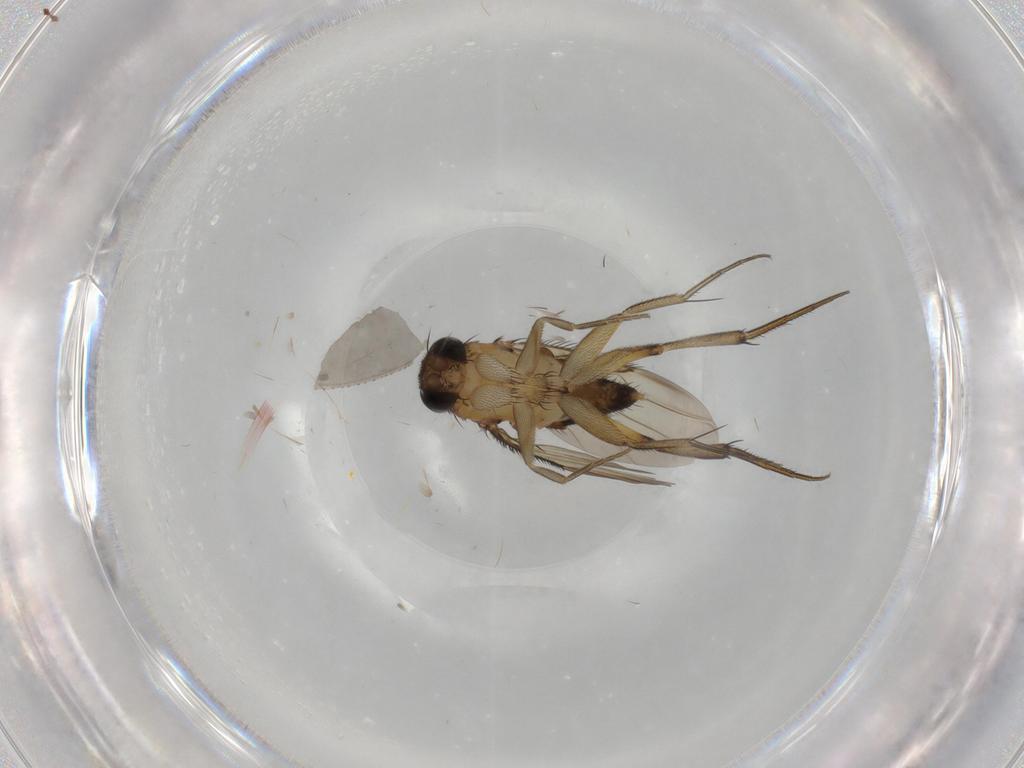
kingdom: Animalia
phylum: Arthropoda
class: Insecta
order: Diptera
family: Phoridae
